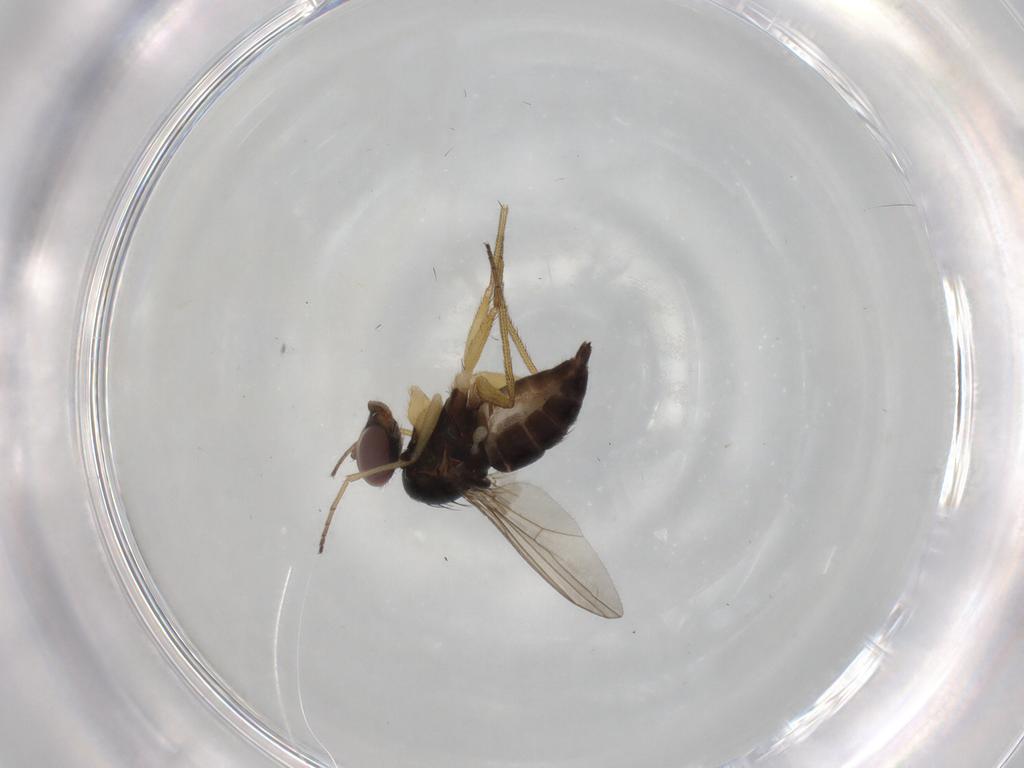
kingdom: Animalia
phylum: Arthropoda
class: Insecta
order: Diptera
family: Dolichopodidae
